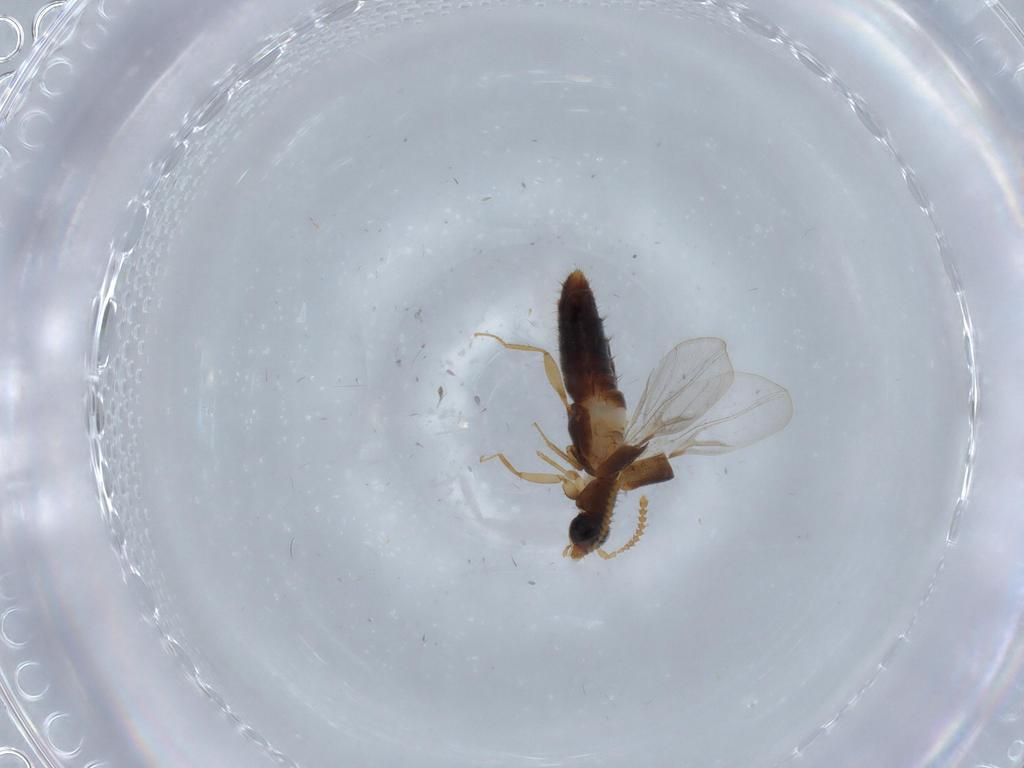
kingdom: Animalia
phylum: Arthropoda
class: Insecta
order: Coleoptera
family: Staphylinidae
